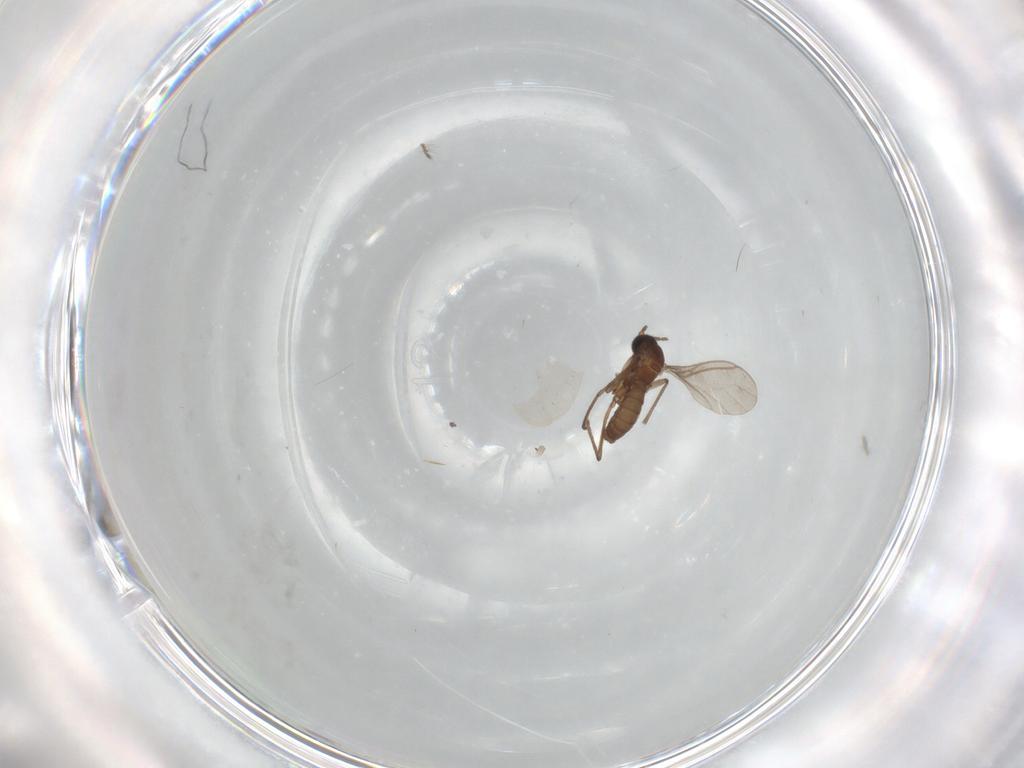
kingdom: Animalia
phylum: Arthropoda
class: Insecta
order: Diptera
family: Sciaridae
